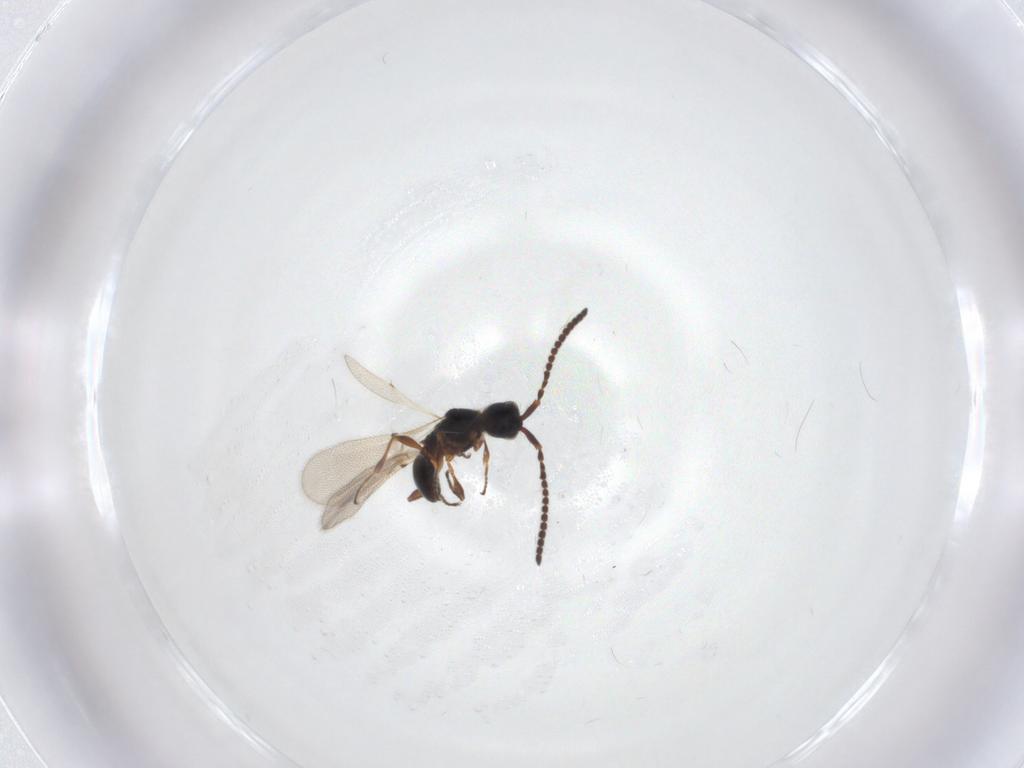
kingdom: Animalia
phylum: Arthropoda
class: Insecta
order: Hymenoptera
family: Diapriidae
